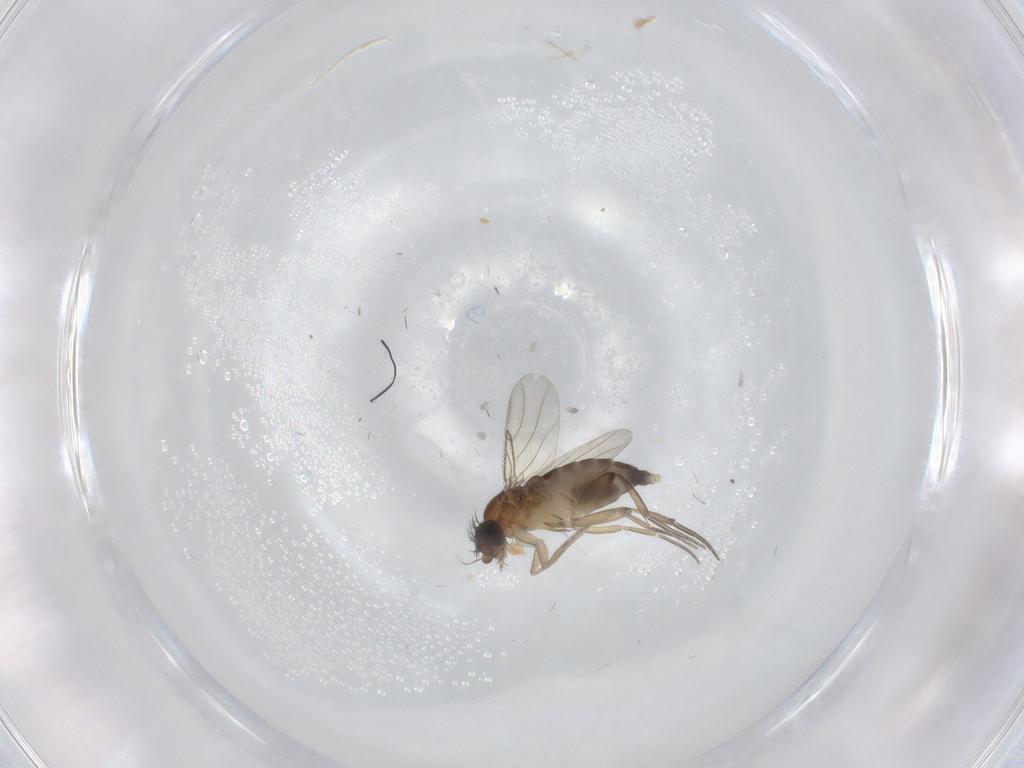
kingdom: Animalia
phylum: Arthropoda
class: Insecta
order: Diptera
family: Phoridae
